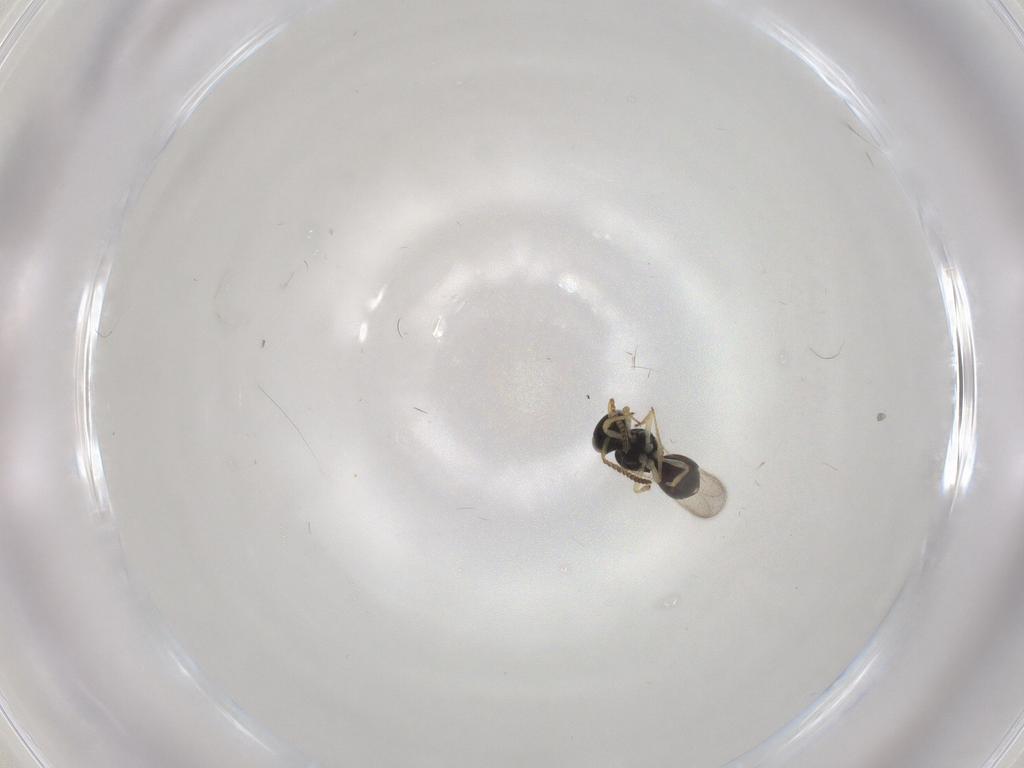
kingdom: Animalia
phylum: Arthropoda
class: Insecta
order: Hymenoptera
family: Scelionidae
